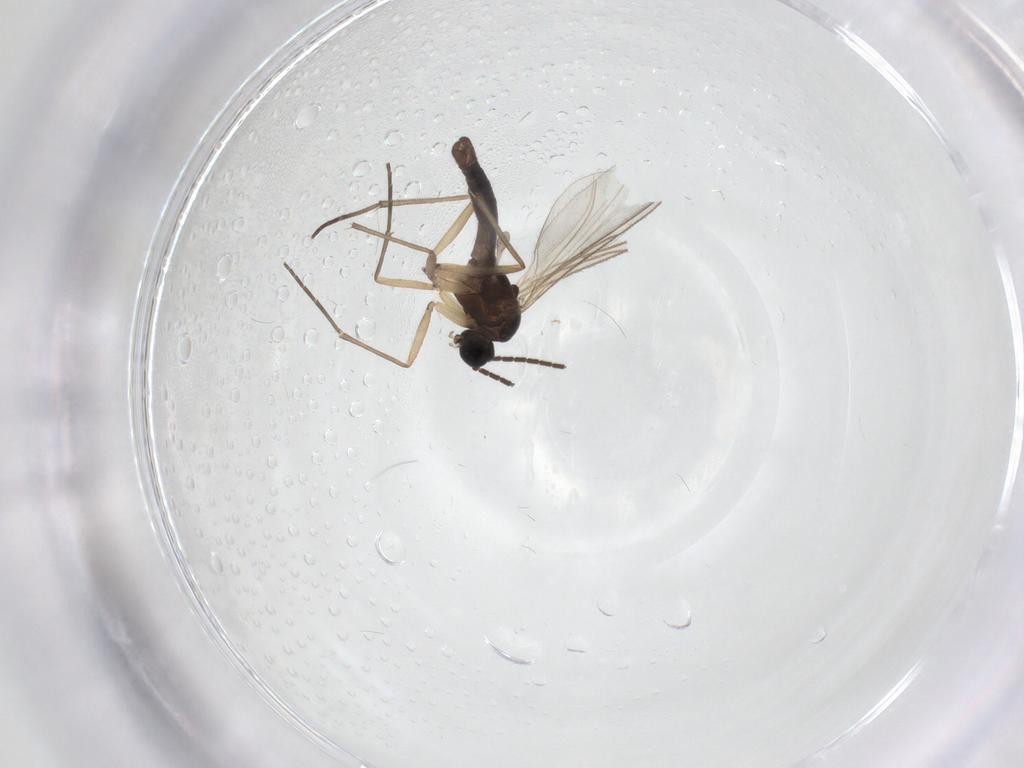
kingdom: Animalia
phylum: Arthropoda
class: Insecta
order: Diptera
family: Sciaridae
